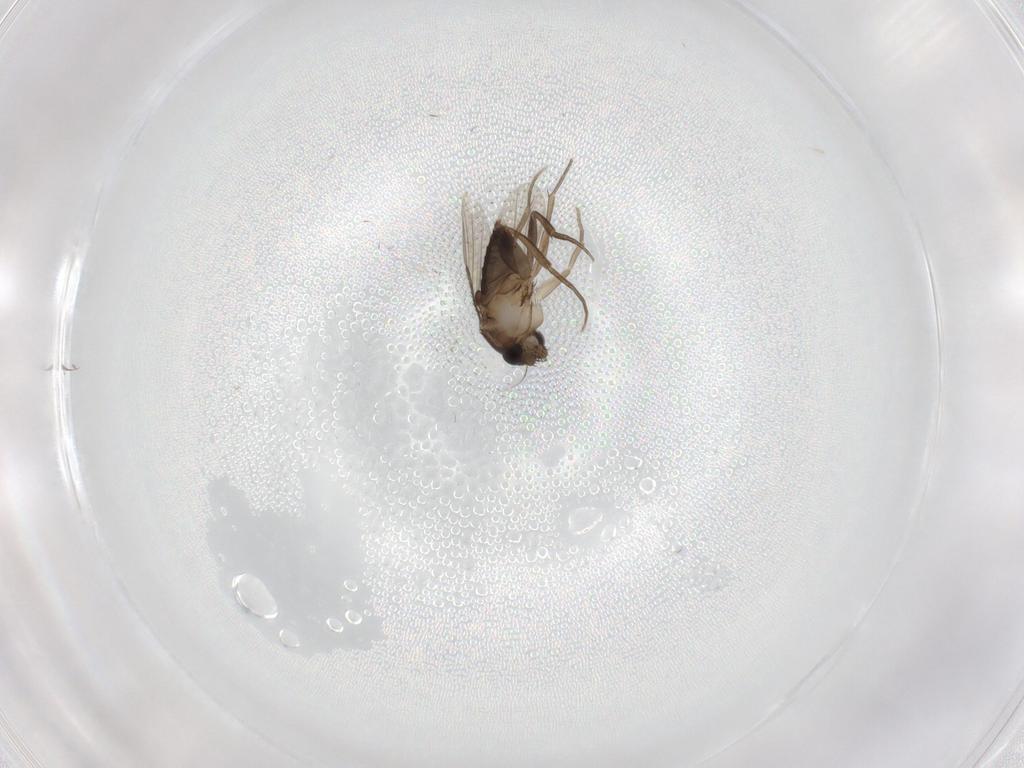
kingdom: Animalia
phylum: Arthropoda
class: Insecta
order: Diptera
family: Phoridae
